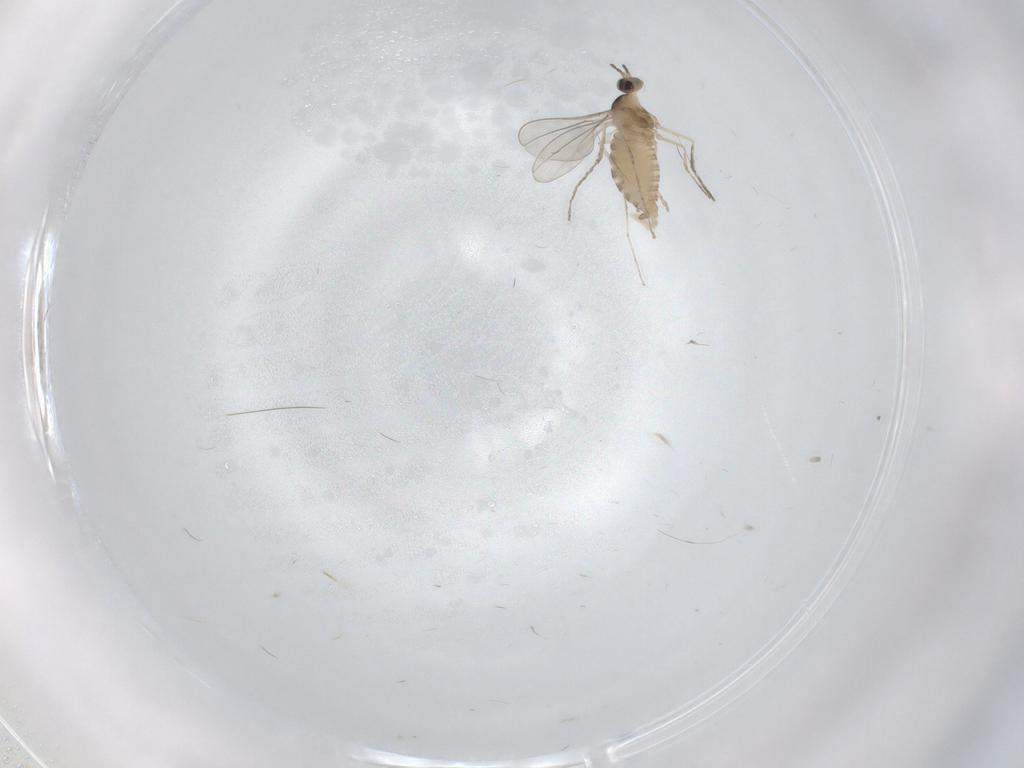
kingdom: Animalia
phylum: Arthropoda
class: Insecta
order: Diptera
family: Cecidomyiidae
